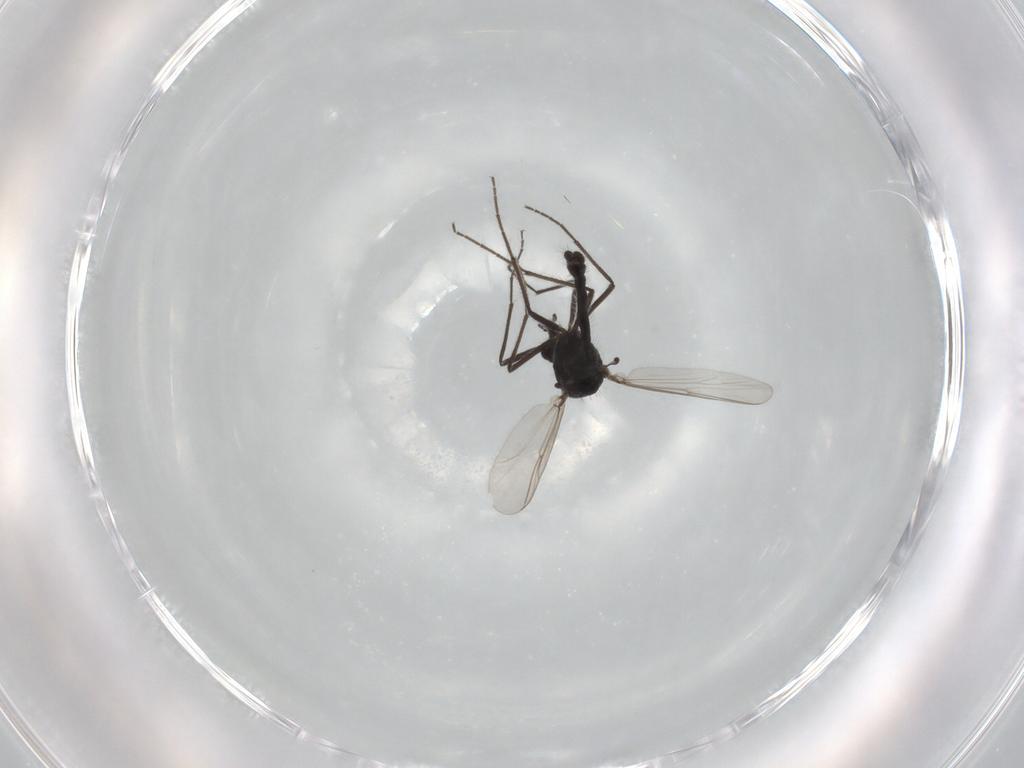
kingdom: Animalia
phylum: Arthropoda
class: Insecta
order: Diptera
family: Chironomidae
